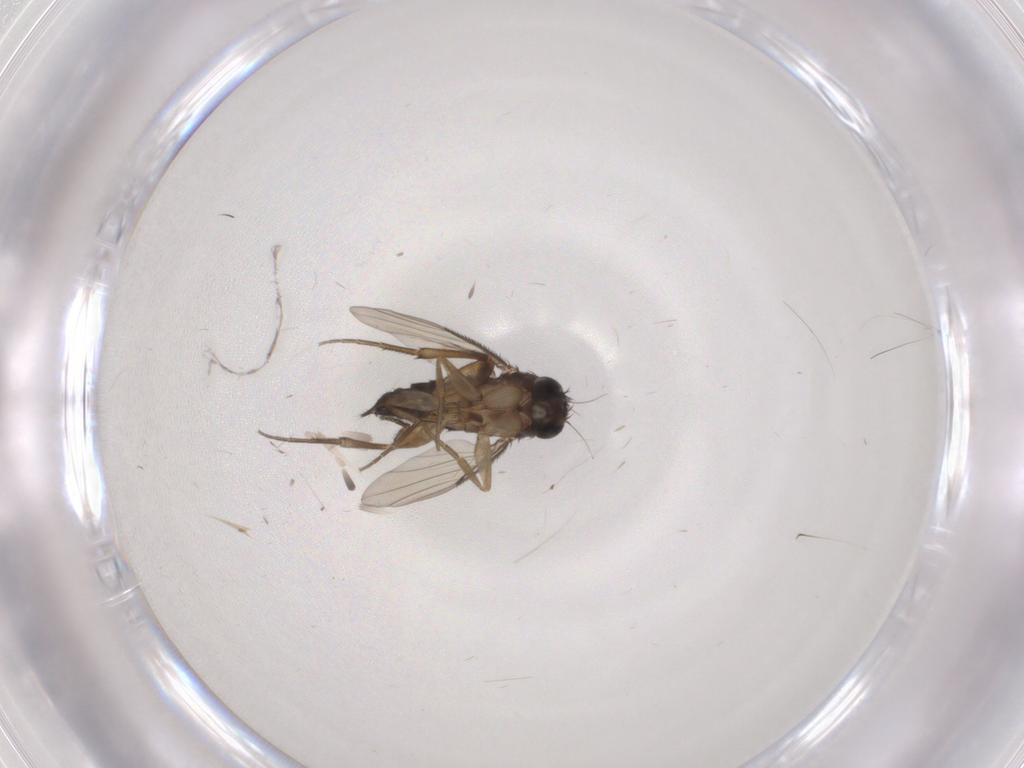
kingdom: Animalia
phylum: Arthropoda
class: Insecta
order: Diptera
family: Phoridae
